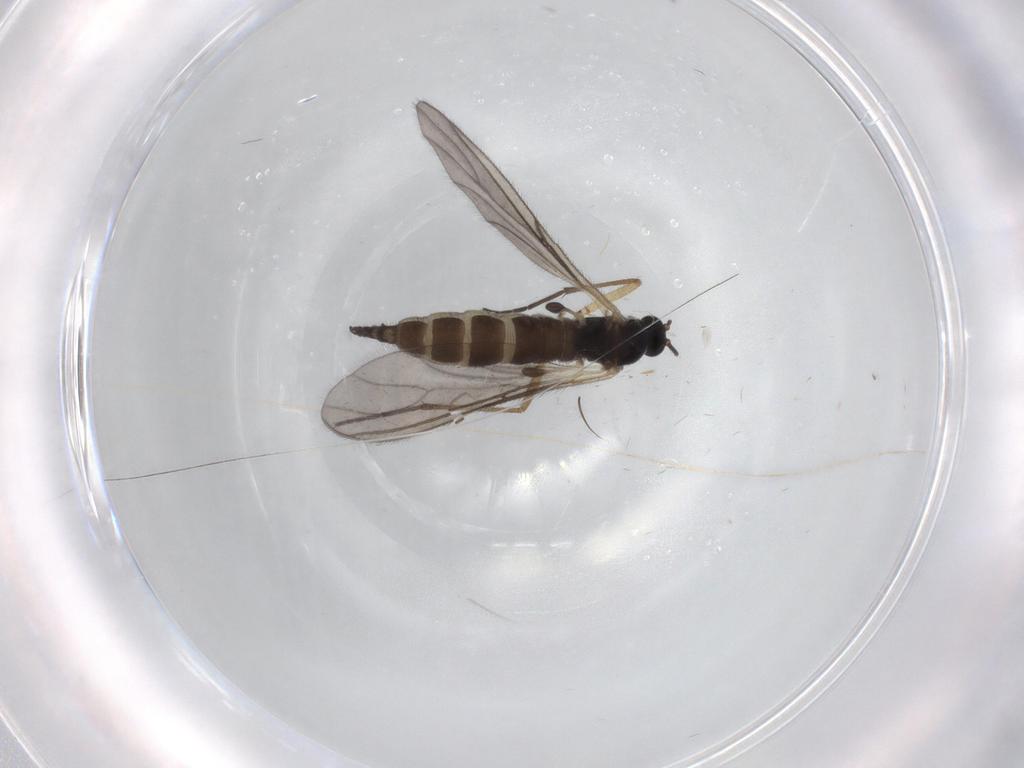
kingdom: Animalia
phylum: Arthropoda
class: Insecta
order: Diptera
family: Sciaridae
